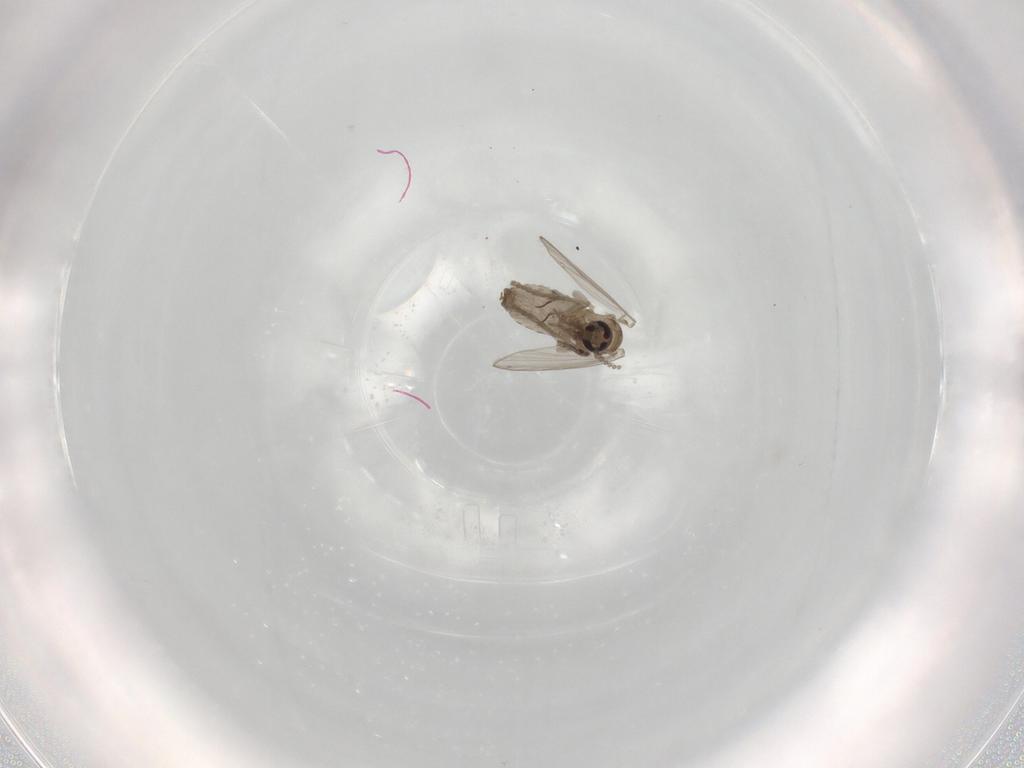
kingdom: Animalia
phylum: Arthropoda
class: Insecta
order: Diptera
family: Psychodidae
